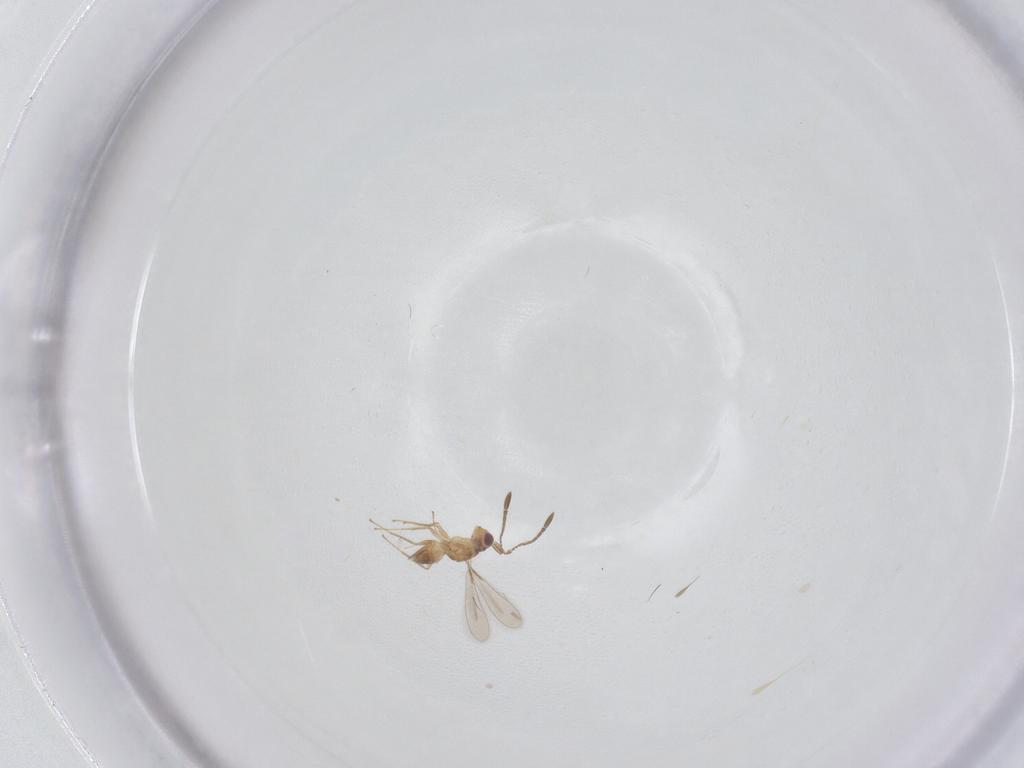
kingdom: Animalia
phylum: Arthropoda
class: Insecta
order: Hymenoptera
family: Mymaridae
